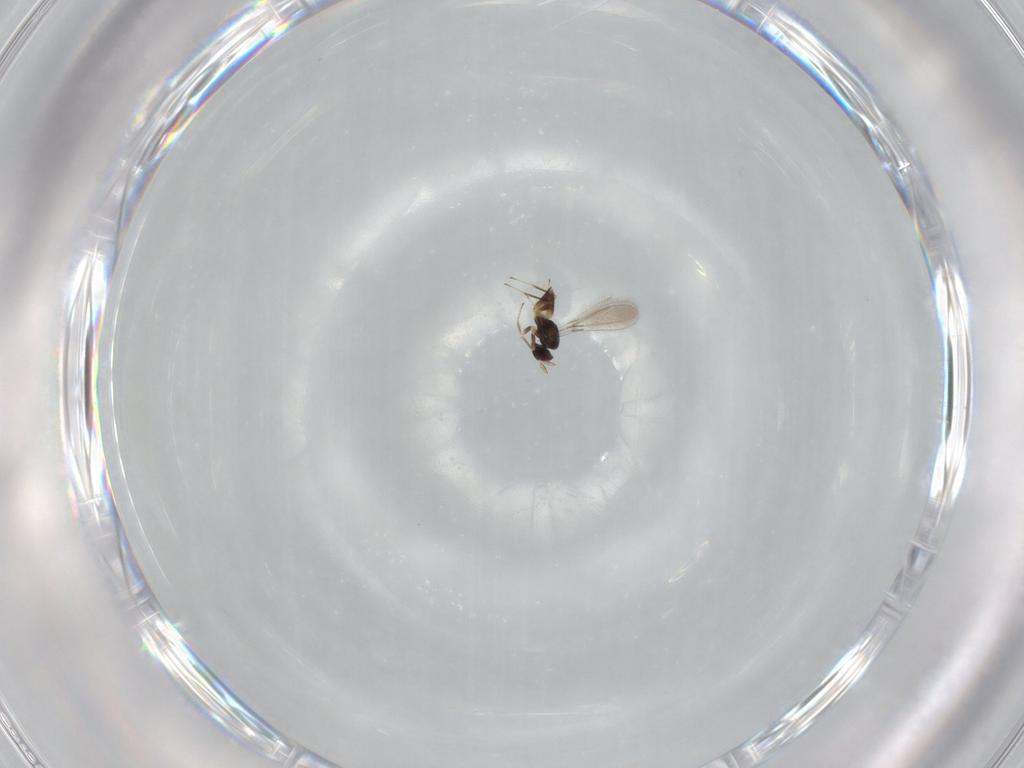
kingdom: Animalia
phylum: Arthropoda
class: Insecta
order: Hymenoptera
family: Mymaridae
